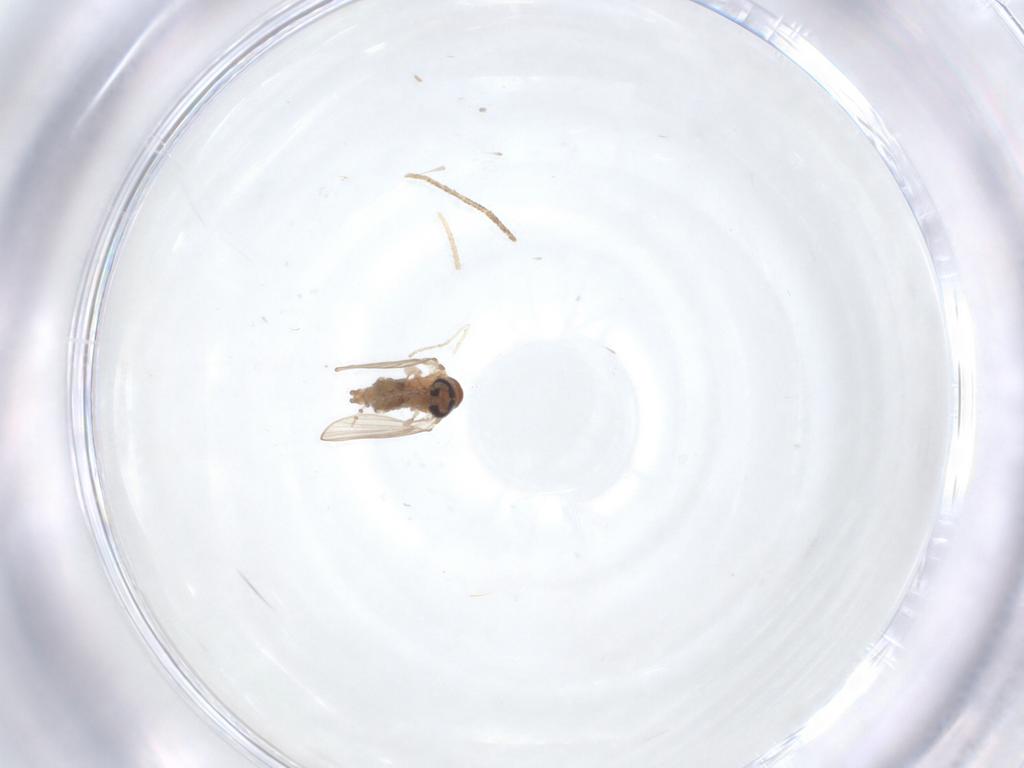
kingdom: Animalia
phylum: Arthropoda
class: Insecta
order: Diptera
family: Psychodidae
